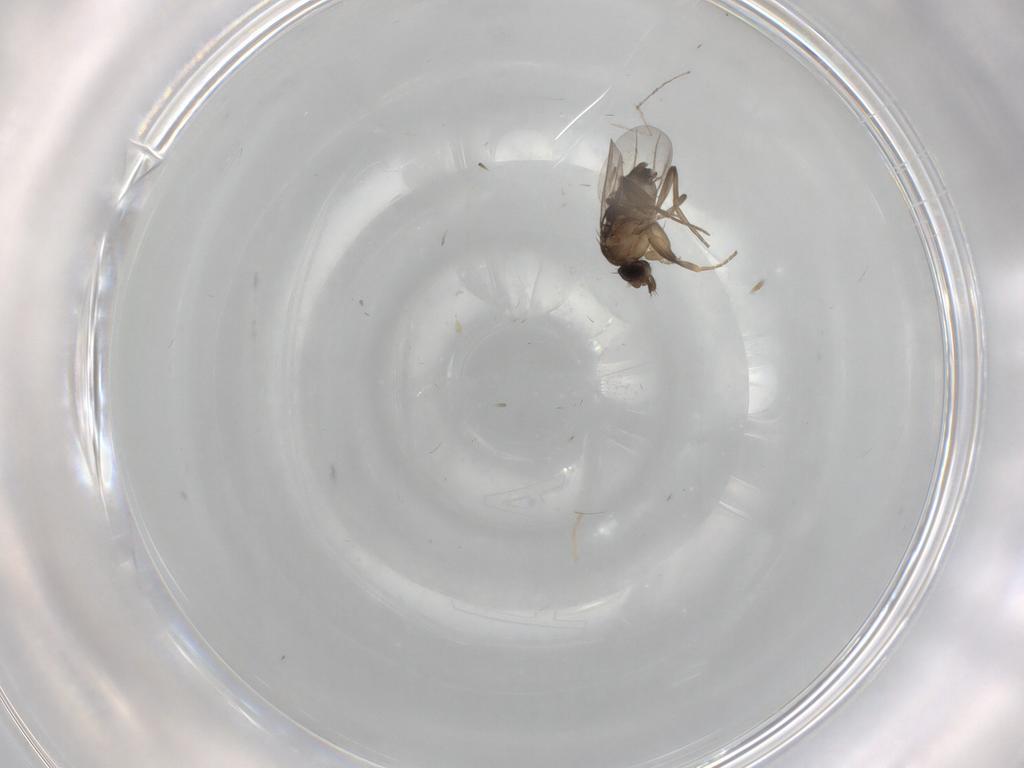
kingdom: Animalia
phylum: Arthropoda
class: Insecta
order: Diptera
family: Phoridae
